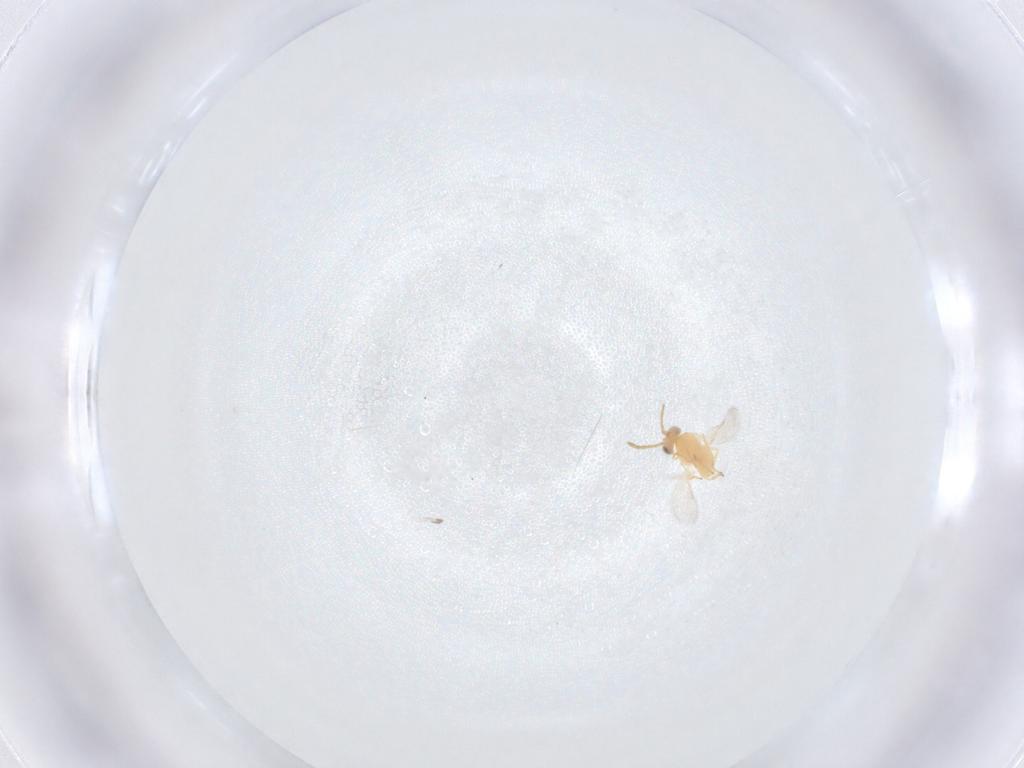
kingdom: Animalia
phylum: Arthropoda
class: Insecta
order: Hymenoptera
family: Aphelinidae
